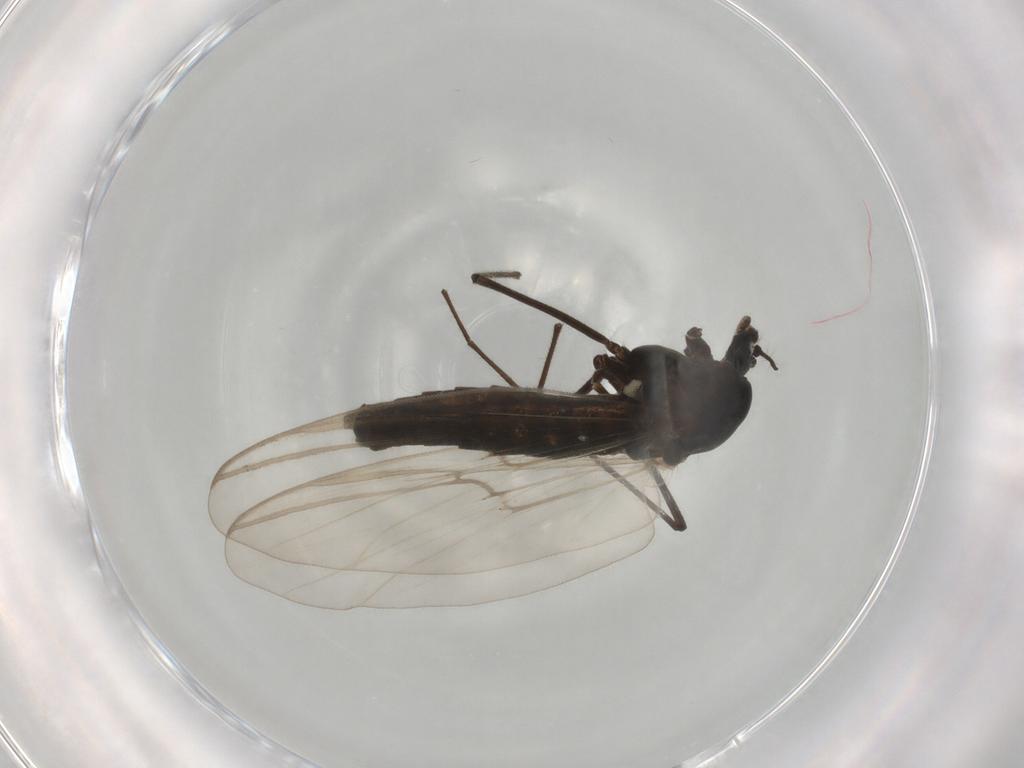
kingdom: Animalia
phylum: Arthropoda
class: Insecta
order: Diptera
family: Chironomidae
